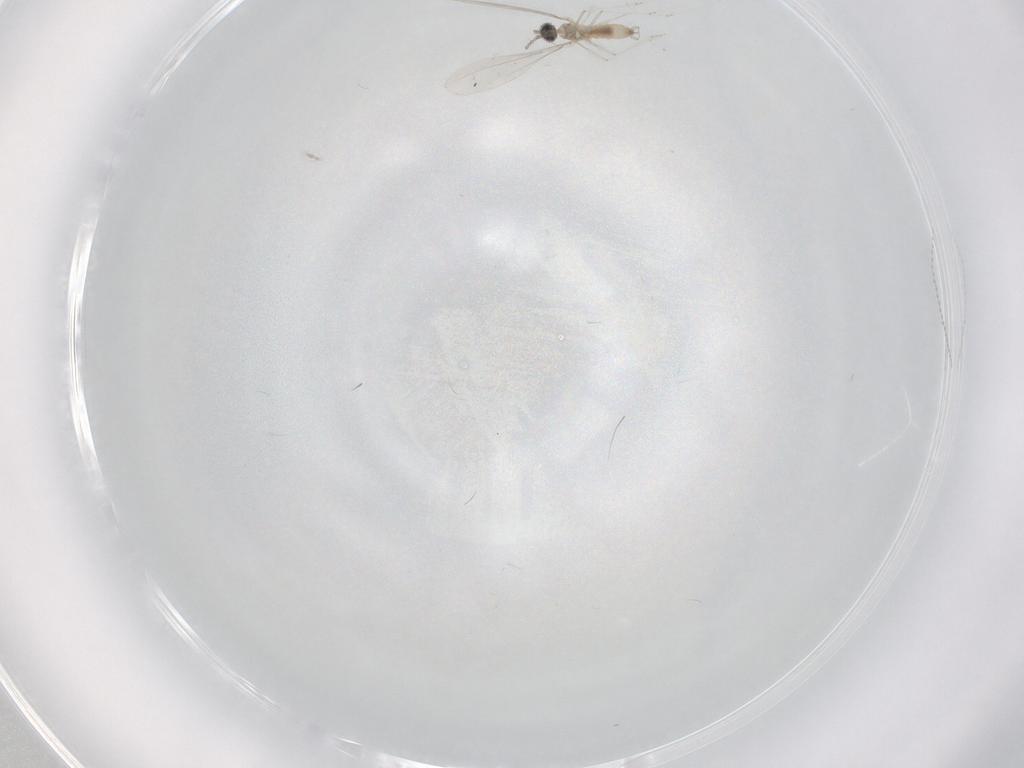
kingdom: Animalia
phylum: Arthropoda
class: Insecta
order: Diptera
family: Cecidomyiidae
